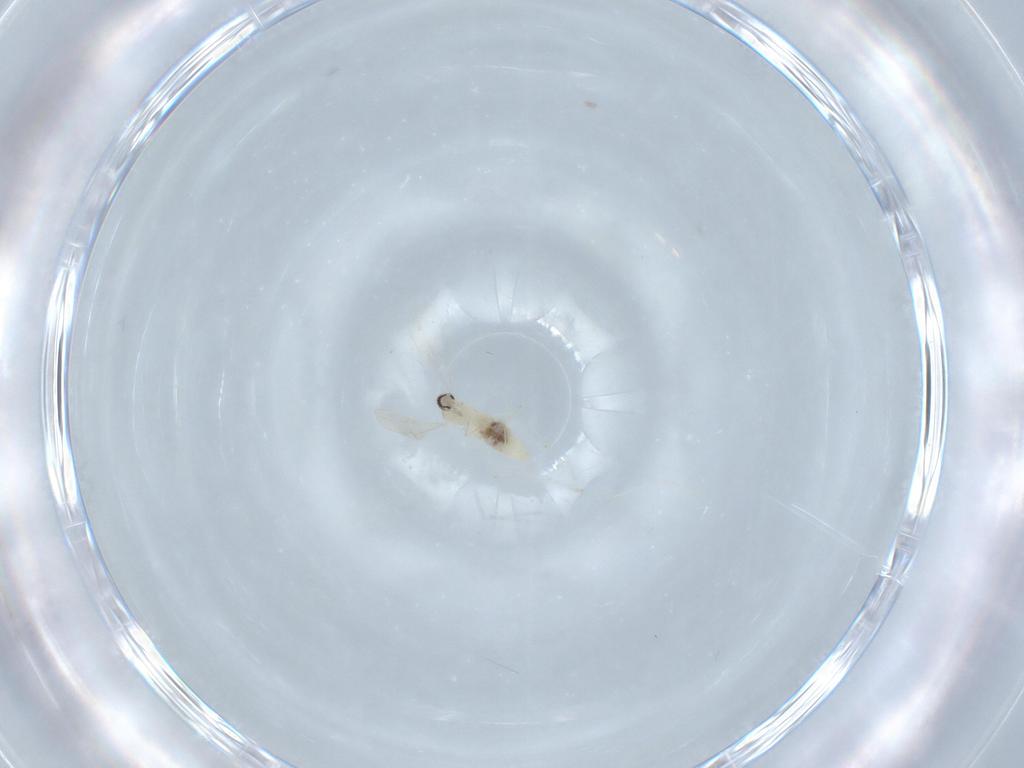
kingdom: Animalia
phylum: Arthropoda
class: Insecta
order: Diptera
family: Cecidomyiidae
